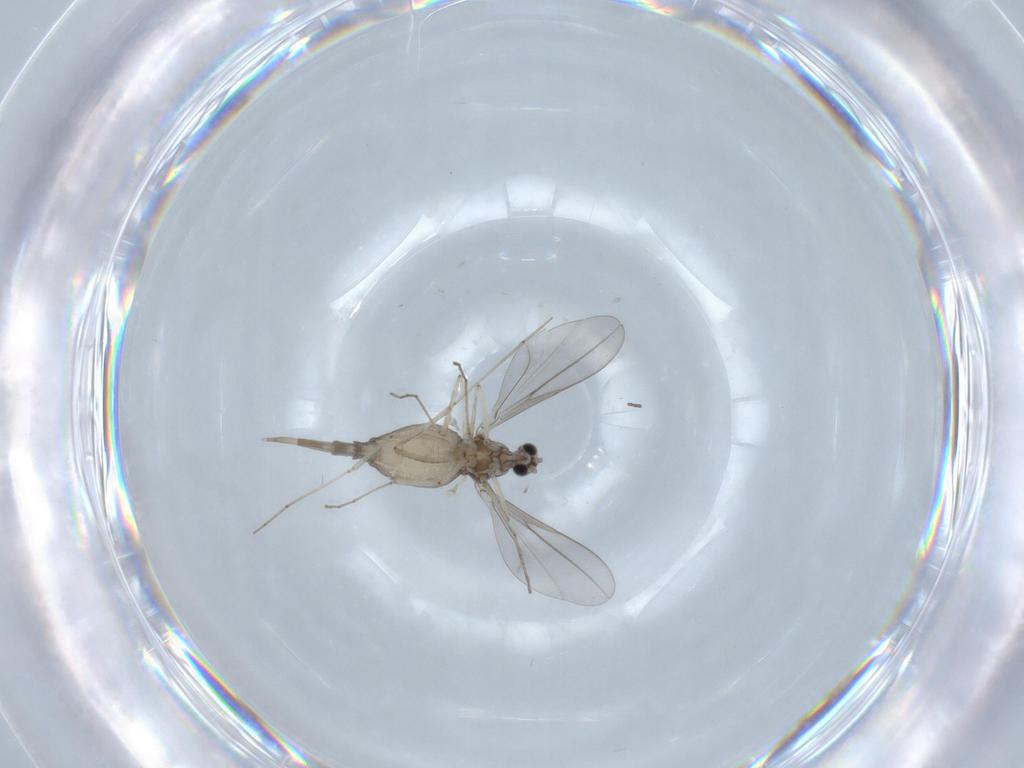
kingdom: Animalia
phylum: Arthropoda
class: Insecta
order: Diptera
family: Cecidomyiidae
